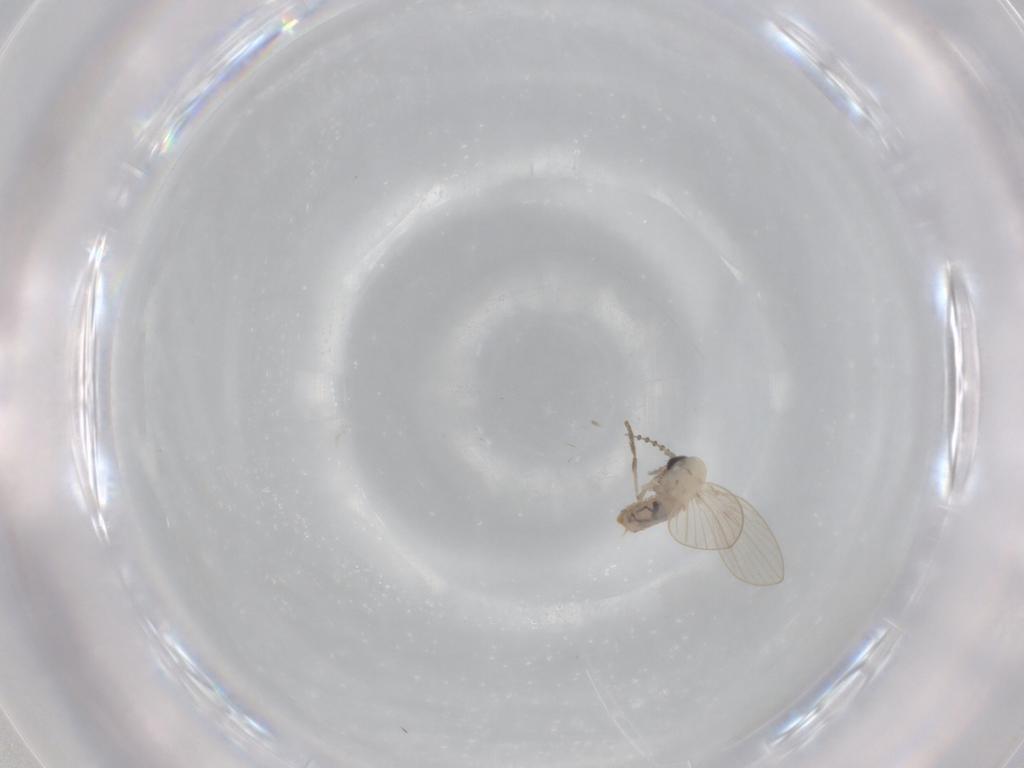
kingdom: Animalia
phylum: Arthropoda
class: Insecta
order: Diptera
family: Psychodidae
